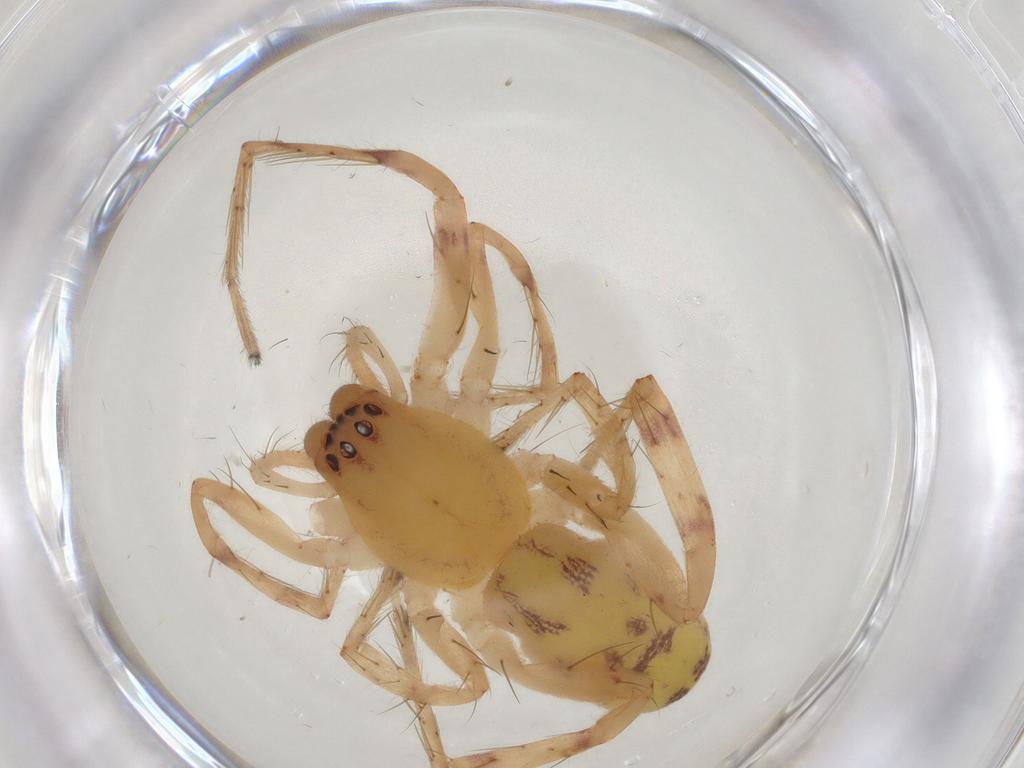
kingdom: Animalia
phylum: Arthropoda
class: Arachnida
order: Araneae
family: Anyphaenidae
